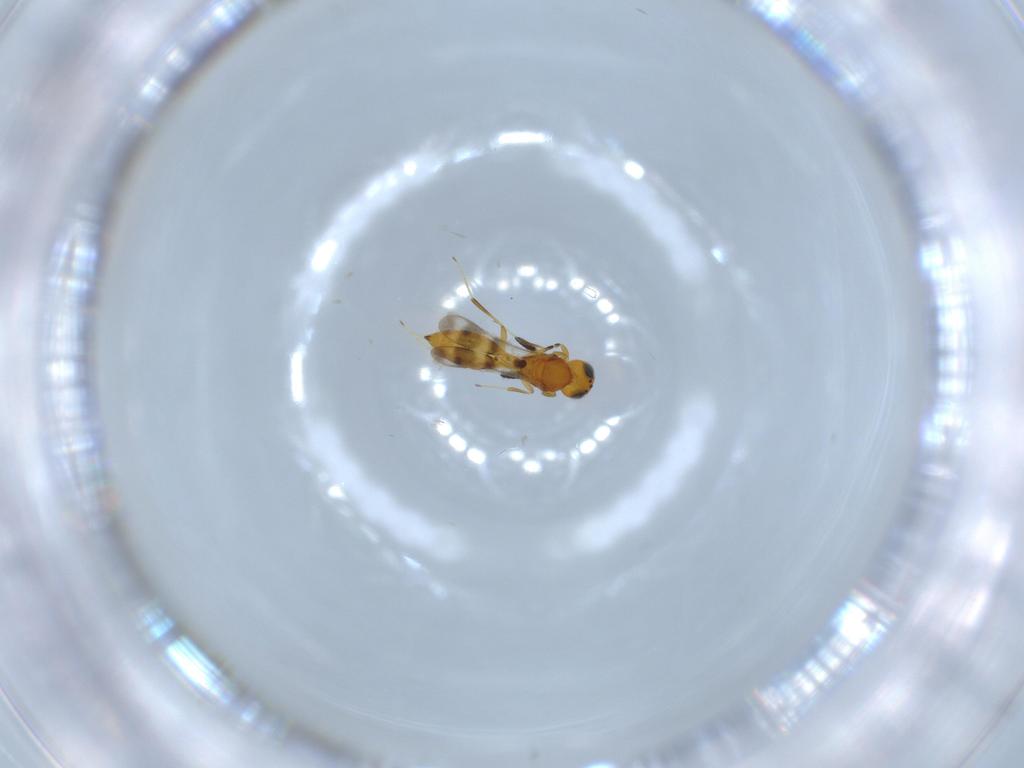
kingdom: Animalia
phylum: Arthropoda
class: Insecta
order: Hymenoptera
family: Scelionidae
